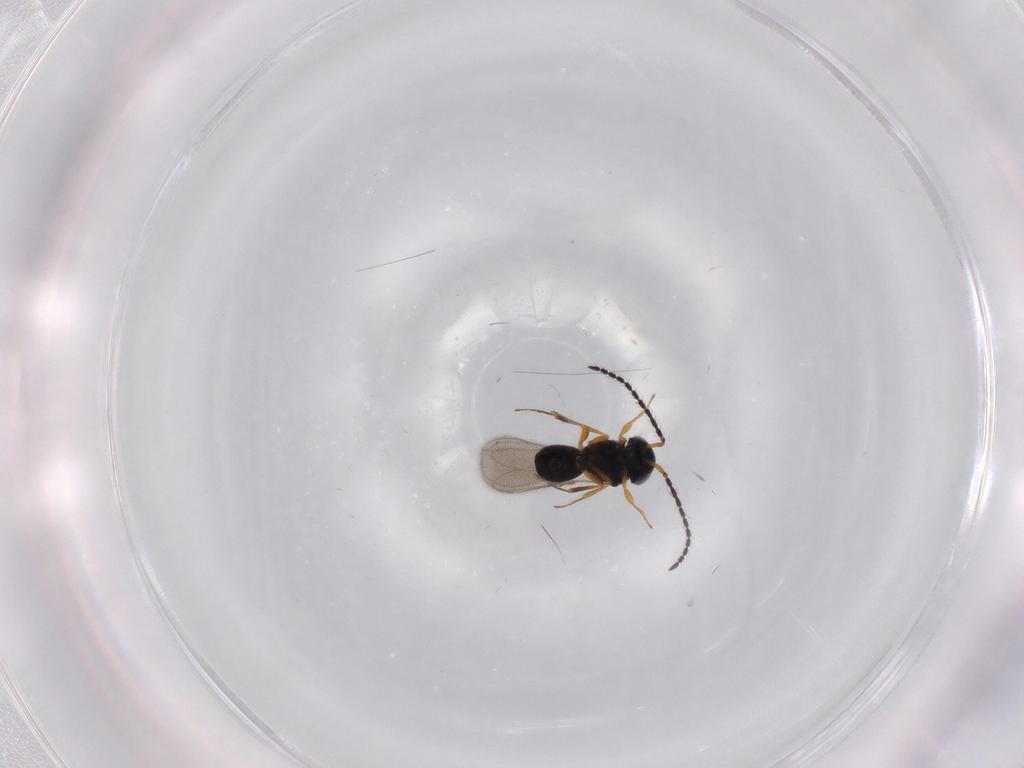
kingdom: Animalia
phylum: Arthropoda
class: Insecta
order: Hymenoptera
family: Scelionidae
